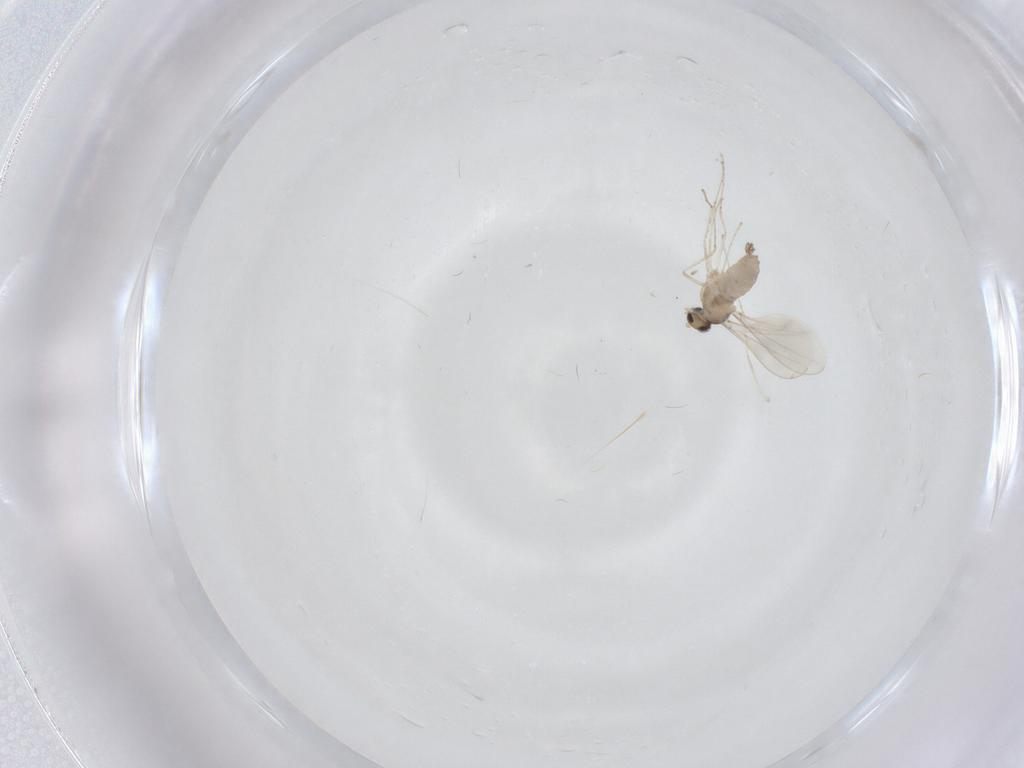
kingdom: Animalia
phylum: Arthropoda
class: Insecta
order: Diptera
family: Cecidomyiidae
